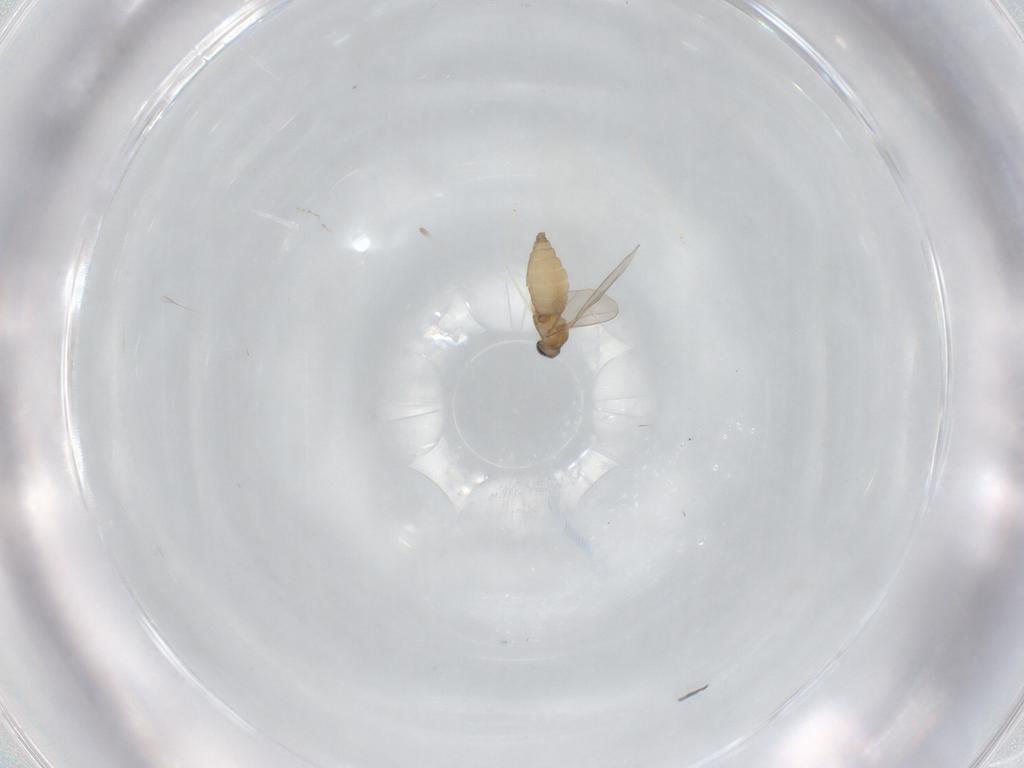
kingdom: Animalia
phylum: Arthropoda
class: Insecta
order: Diptera
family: Cecidomyiidae
